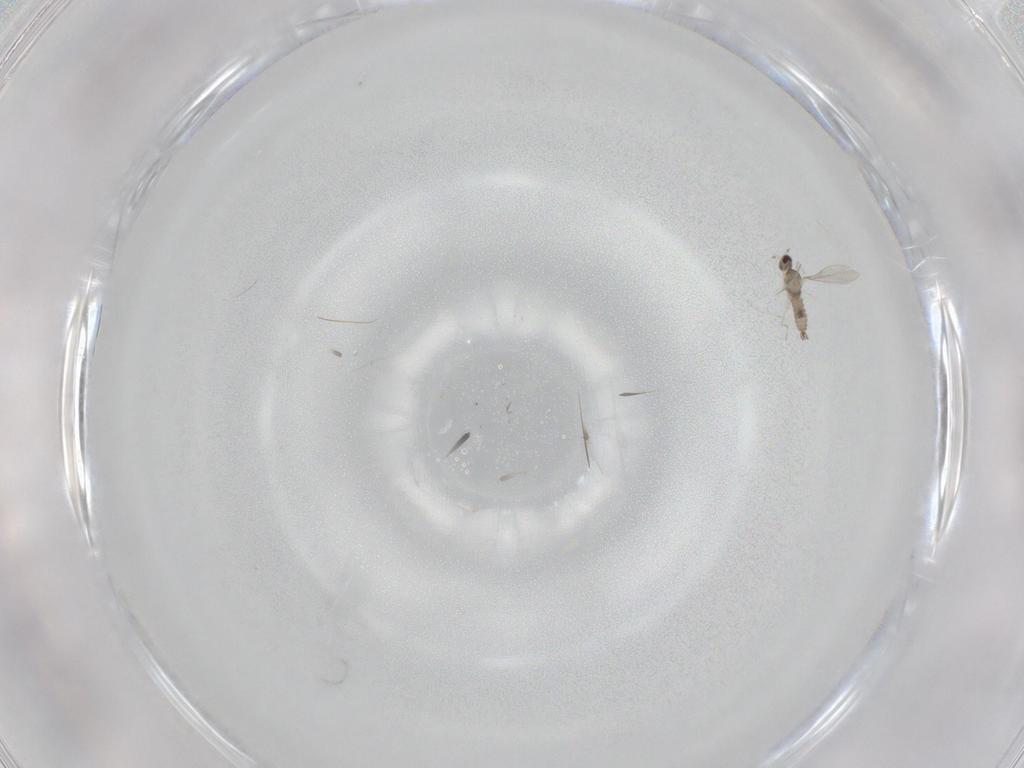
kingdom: Animalia
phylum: Arthropoda
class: Insecta
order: Diptera
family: Cecidomyiidae
